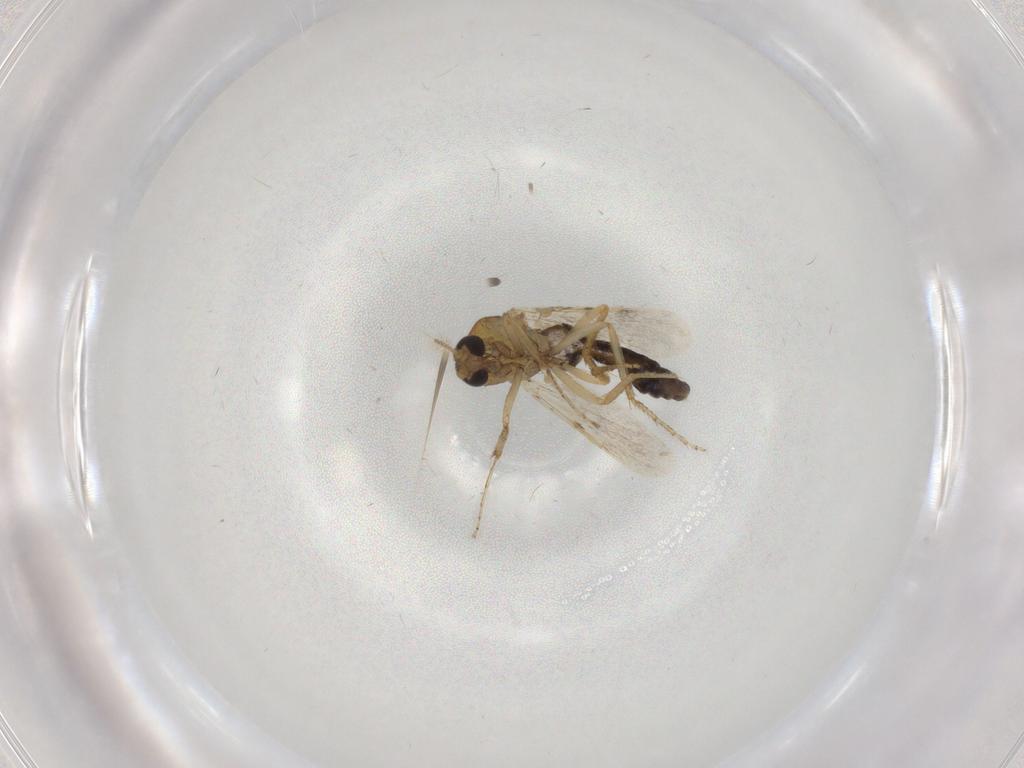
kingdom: Animalia
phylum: Arthropoda
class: Insecta
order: Diptera
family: Ceratopogonidae
